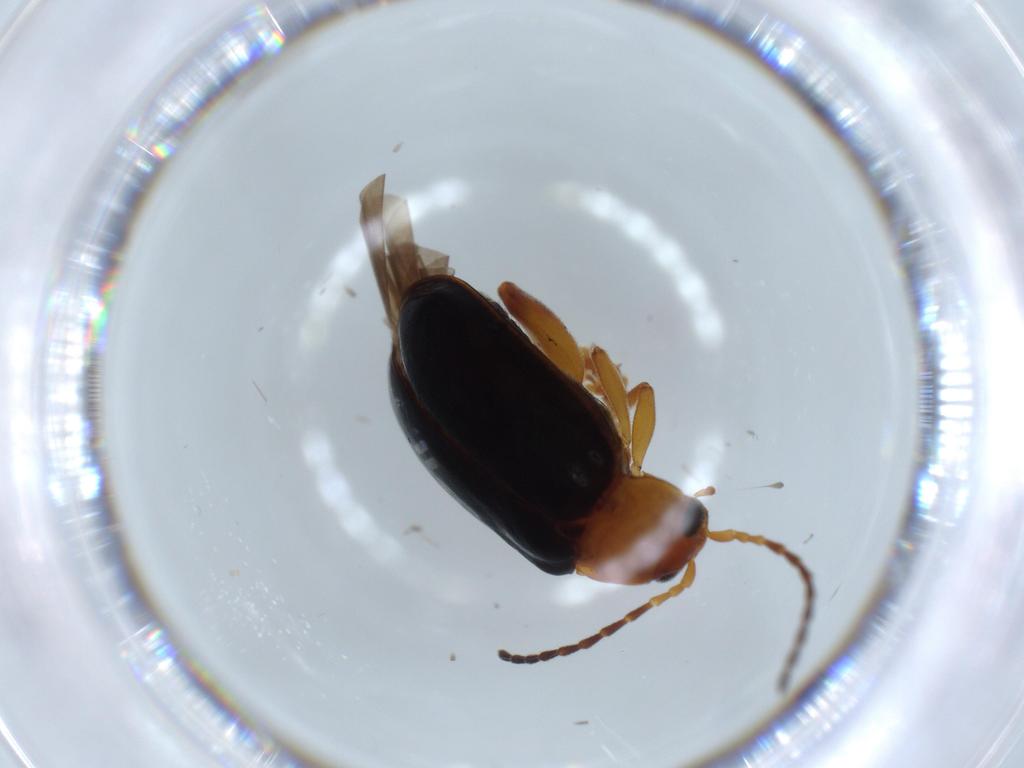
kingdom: Animalia
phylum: Arthropoda
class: Insecta
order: Coleoptera
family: Chrysomelidae
